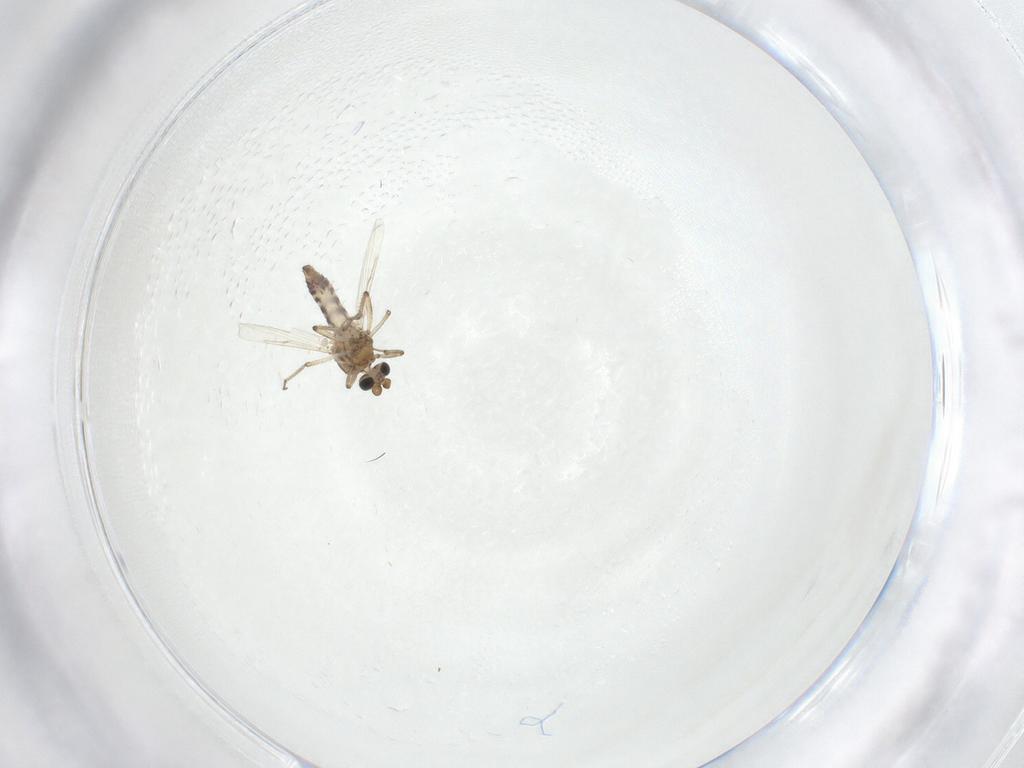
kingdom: Animalia
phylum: Arthropoda
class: Insecta
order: Diptera
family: Ceratopogonidae
